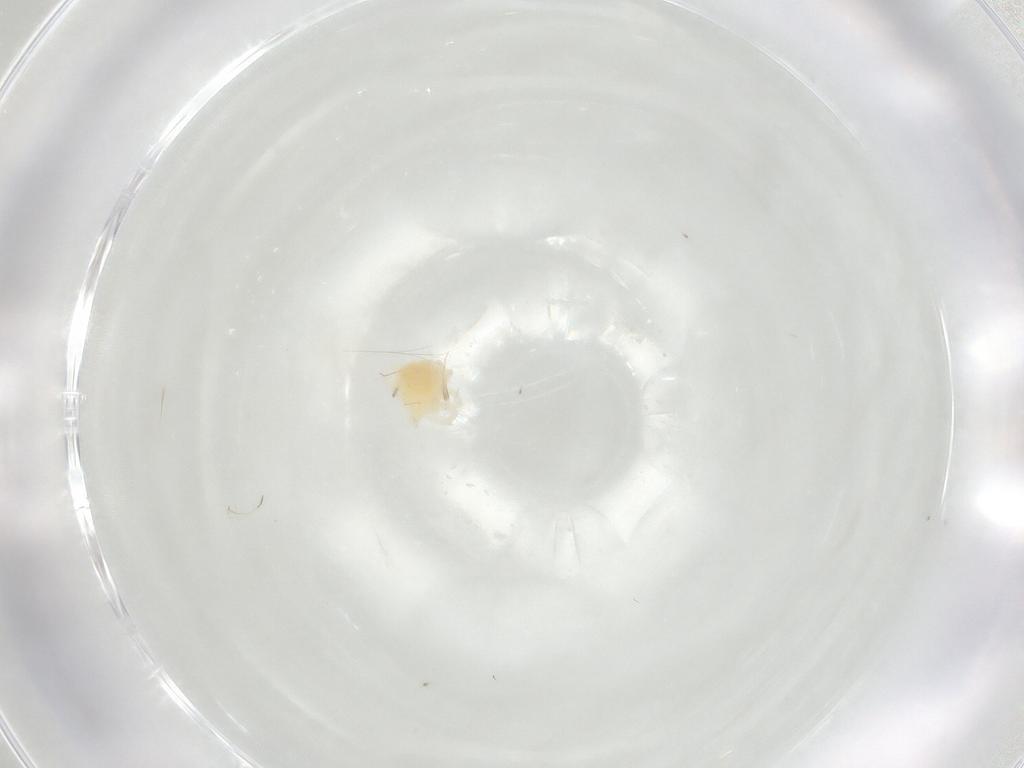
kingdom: Animalia
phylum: Arthropoda
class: Arachnida
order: Trombidiformes
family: Anystidae
